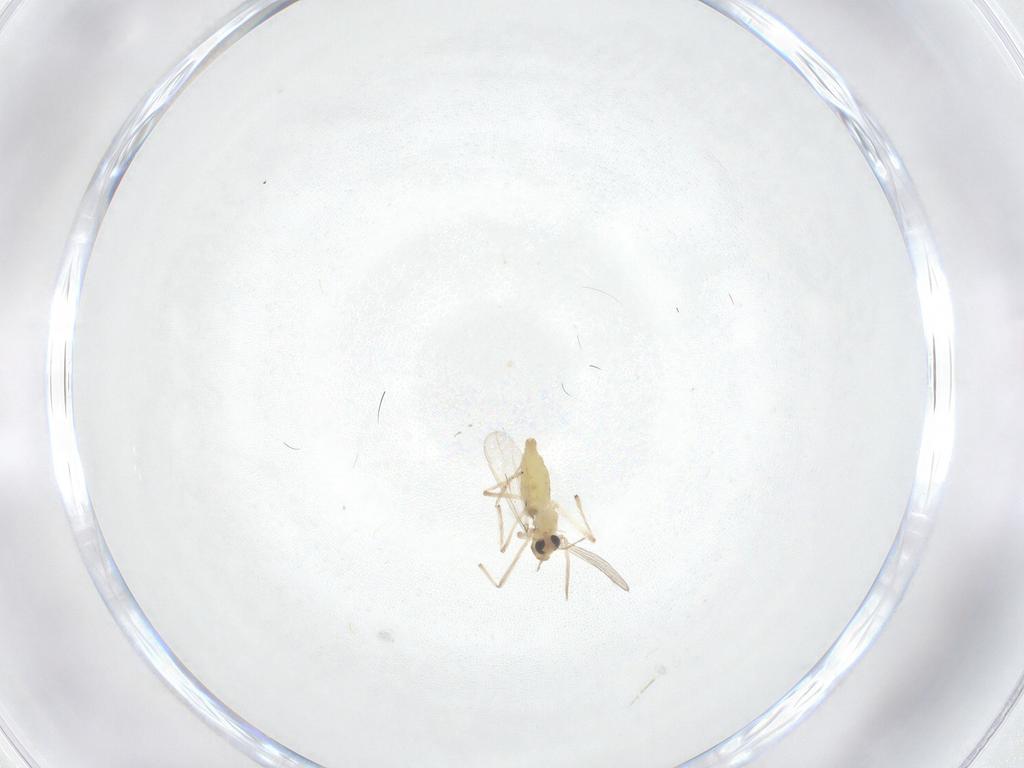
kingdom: Animalia
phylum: Arthropoda
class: Insecta
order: Diptera
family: Chironomidae
